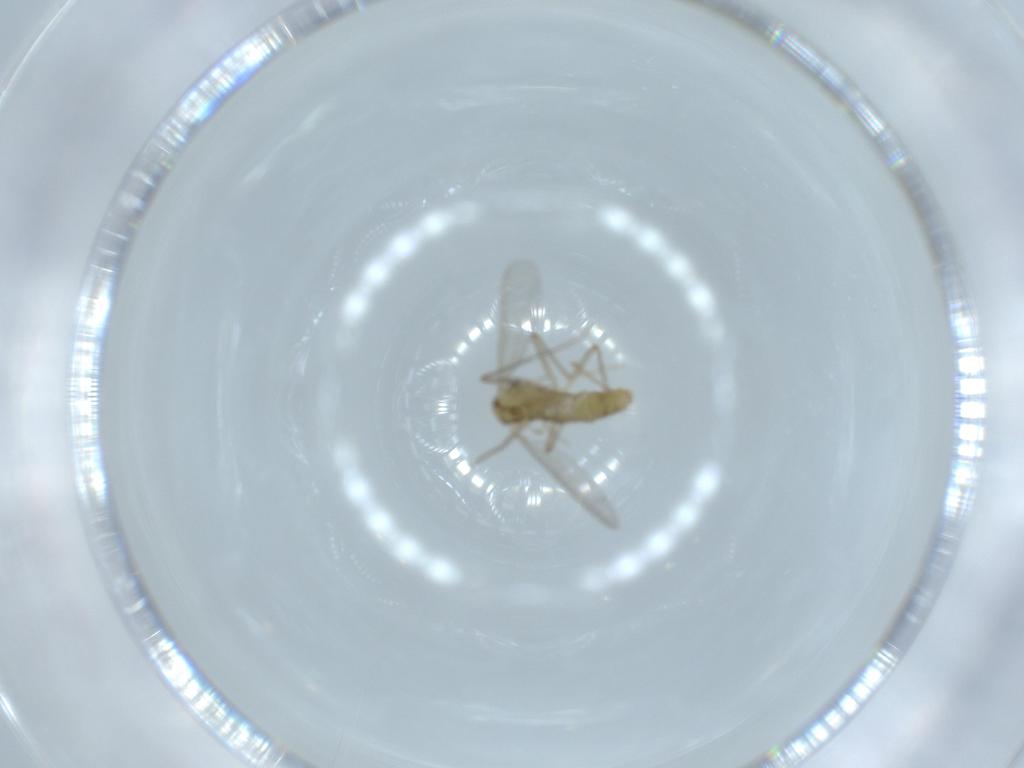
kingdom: Animalia
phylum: Arthropoda
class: Insecta
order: Diptera
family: Chironomidae
